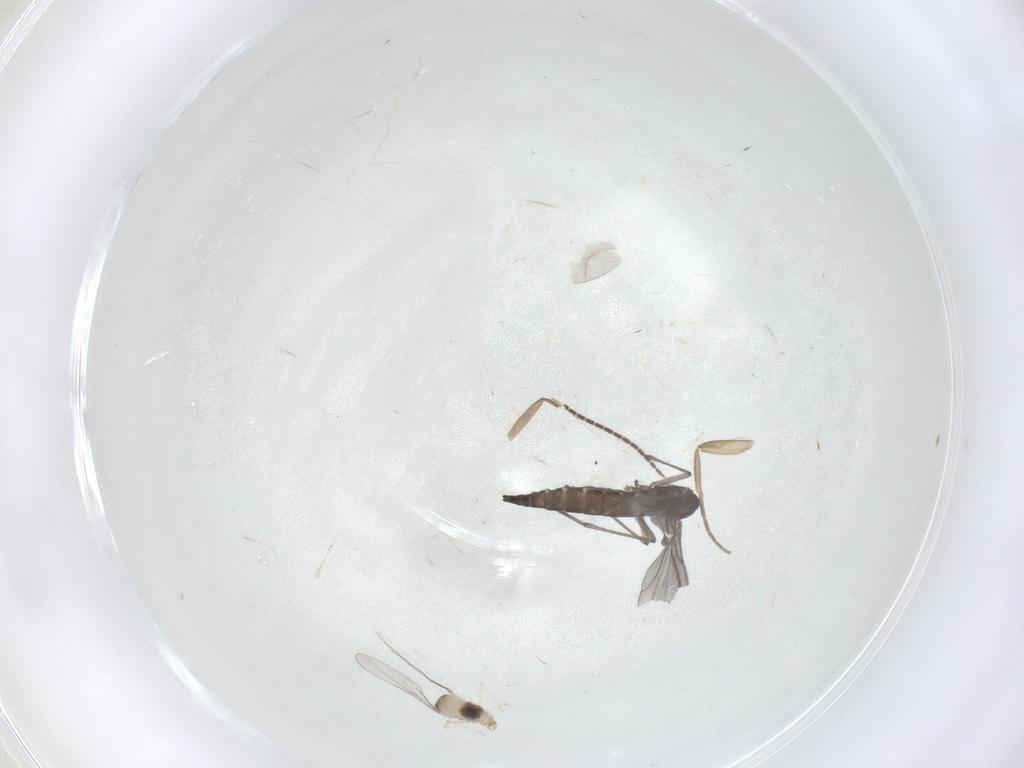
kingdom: Animalia
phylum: Arthropoda
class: Insecta
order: Diptera
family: Sciaridae
